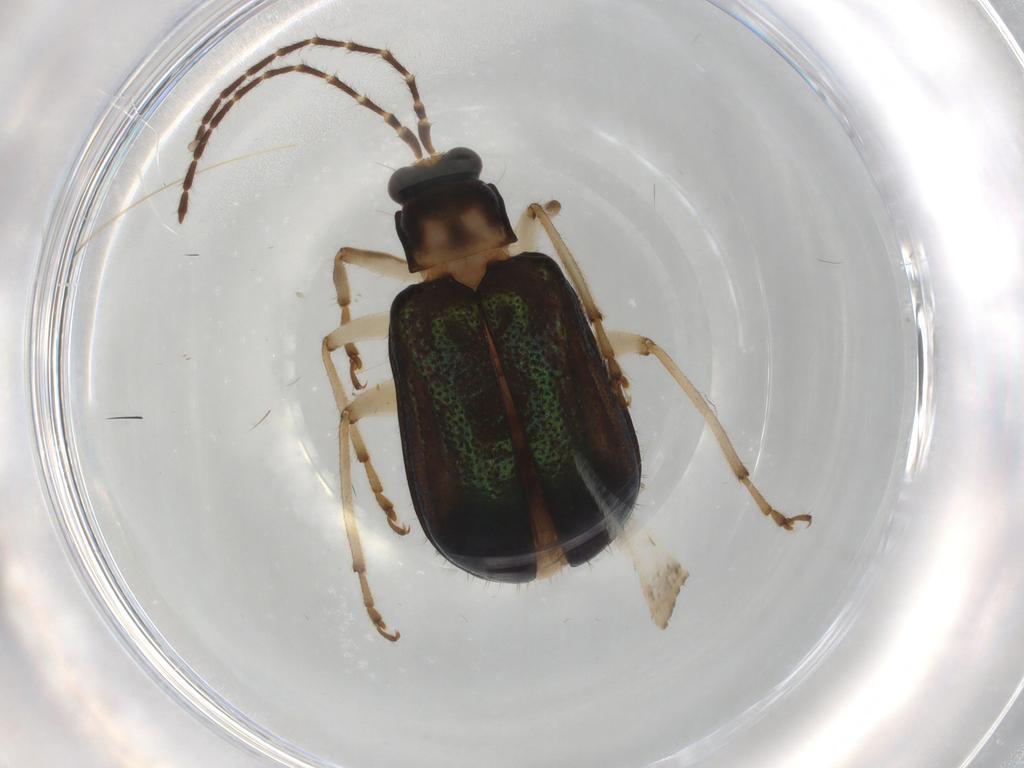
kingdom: Animalia
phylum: Arthropoda
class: Insecta
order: Coleoptera
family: Chrysomelidae
